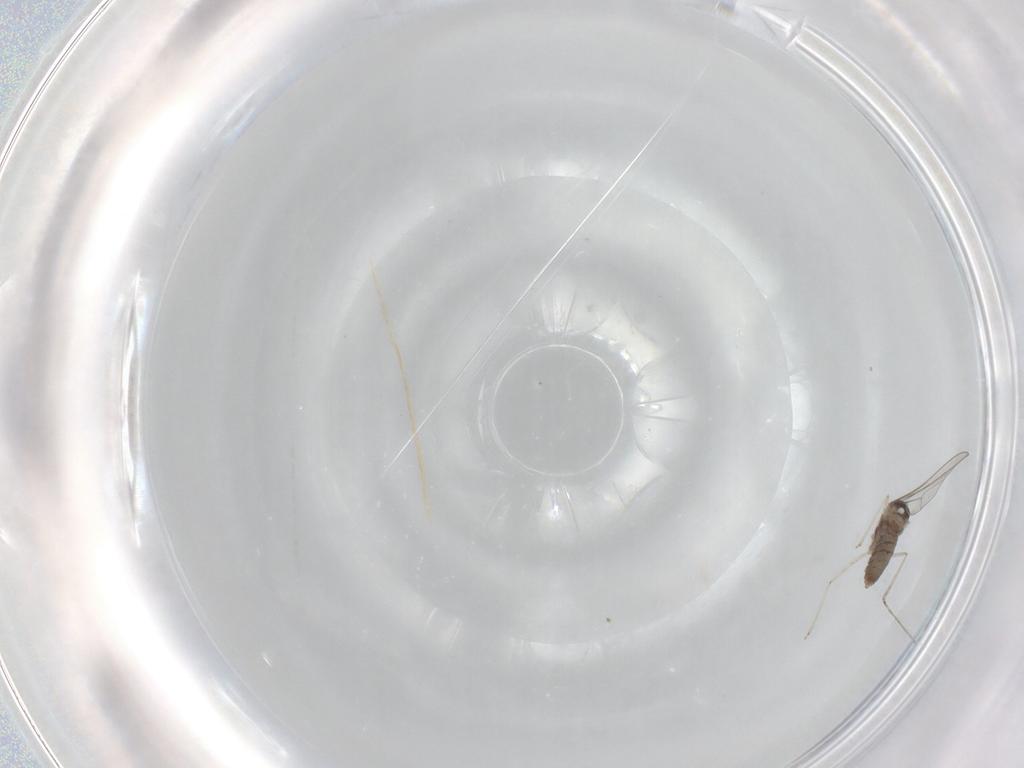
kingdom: Animalia
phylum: Arthropoda
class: Insecta
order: Diptera
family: Cecidomyiidae
